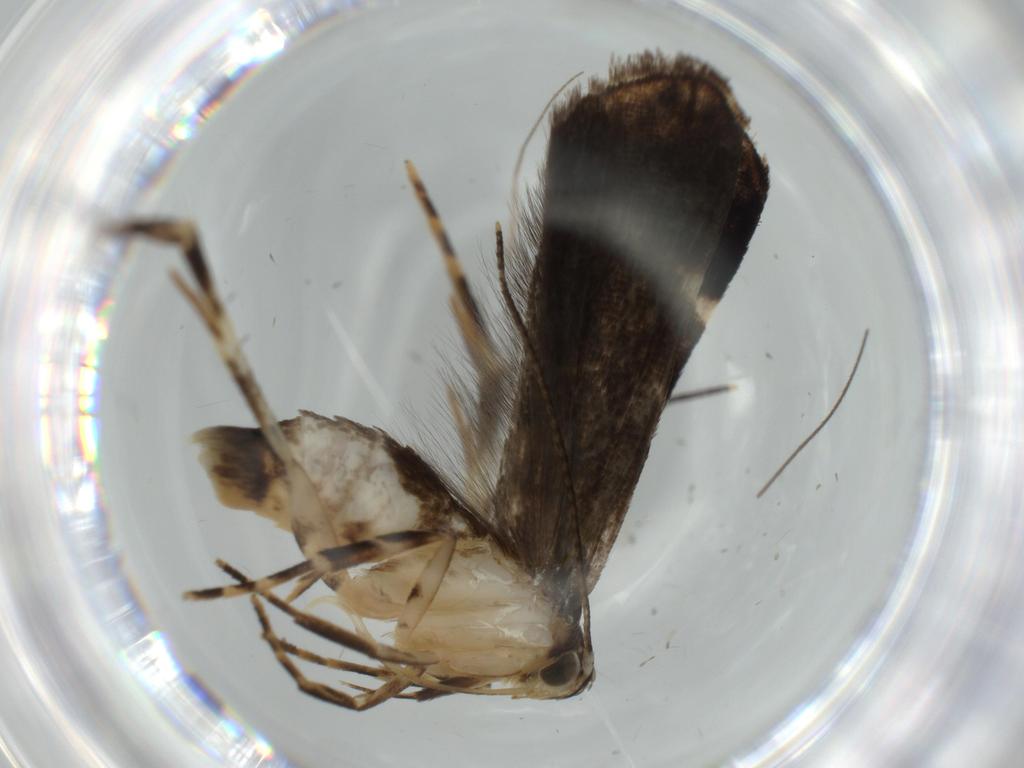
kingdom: Animalia
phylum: Arthropoda
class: Insecta
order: Lepidoptera
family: Cosmopterigidae
